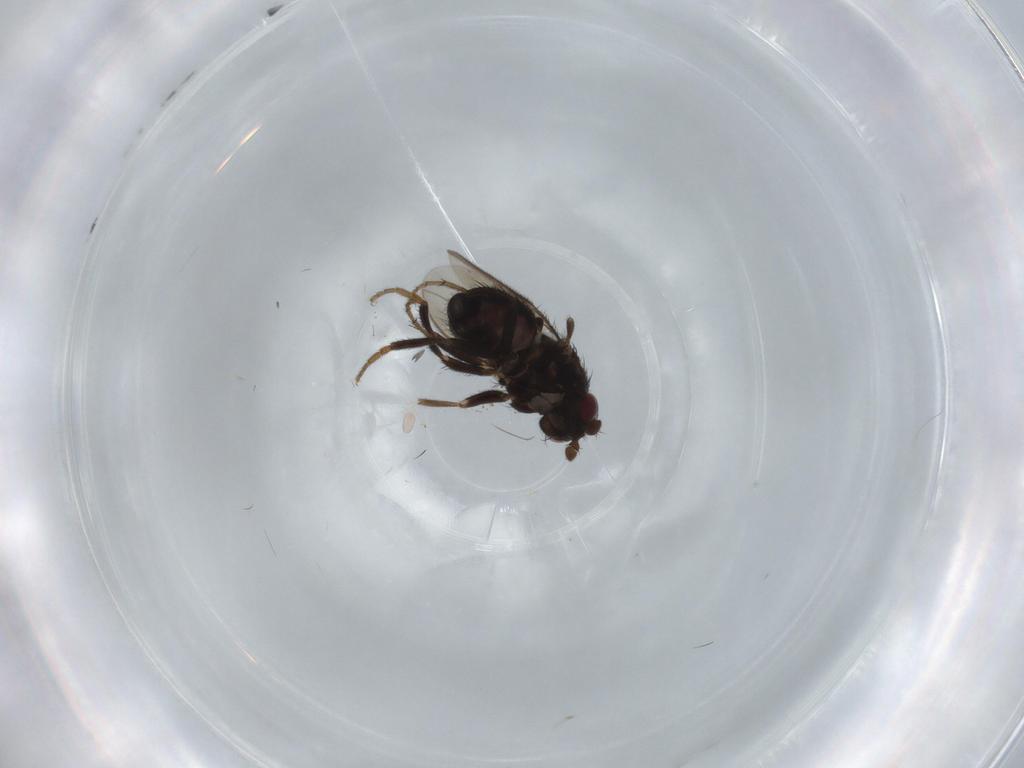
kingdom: Animalia
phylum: Arthropoda
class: Insecta
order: Diptera
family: Sphaeroceridae
